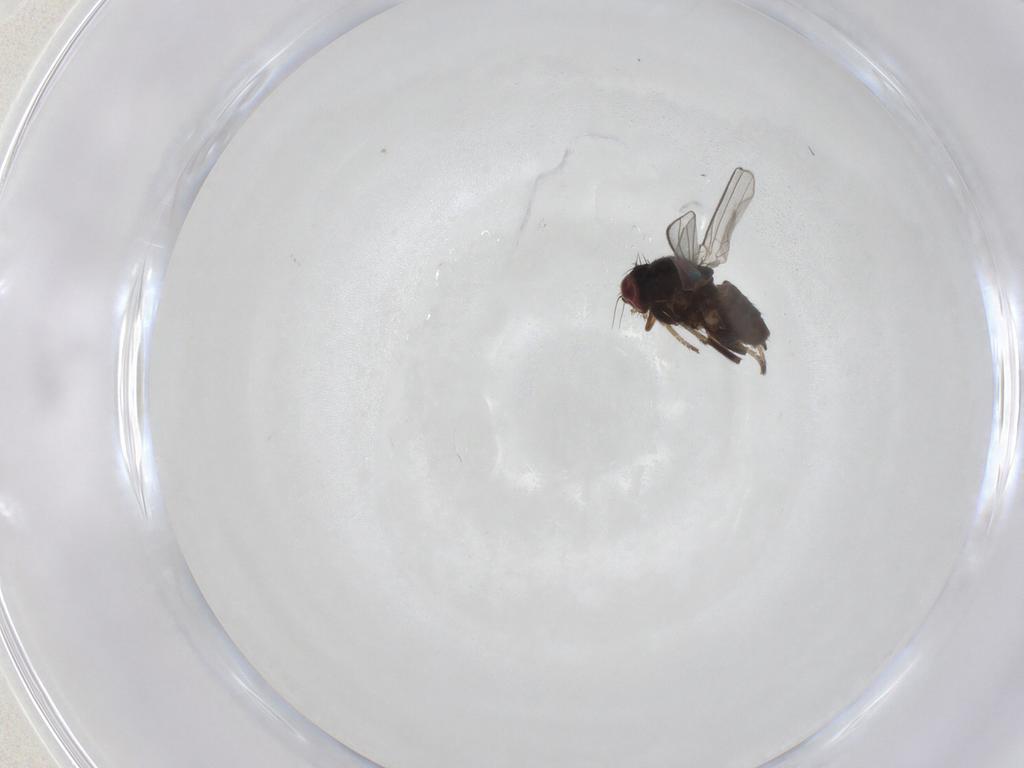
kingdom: Animalia
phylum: Arthropoda
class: Insecta
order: Diptera
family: Milichiidae
